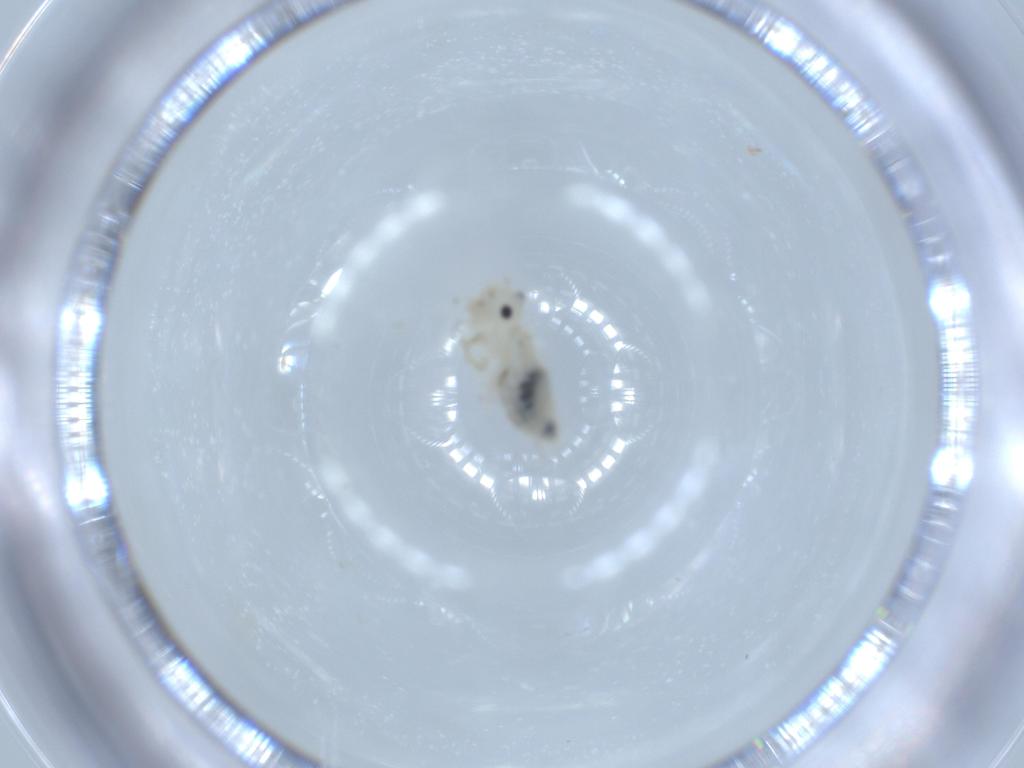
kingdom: Animalia
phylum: Arthropoda
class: Insecta
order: Psocodea
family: Caeciliusidae
